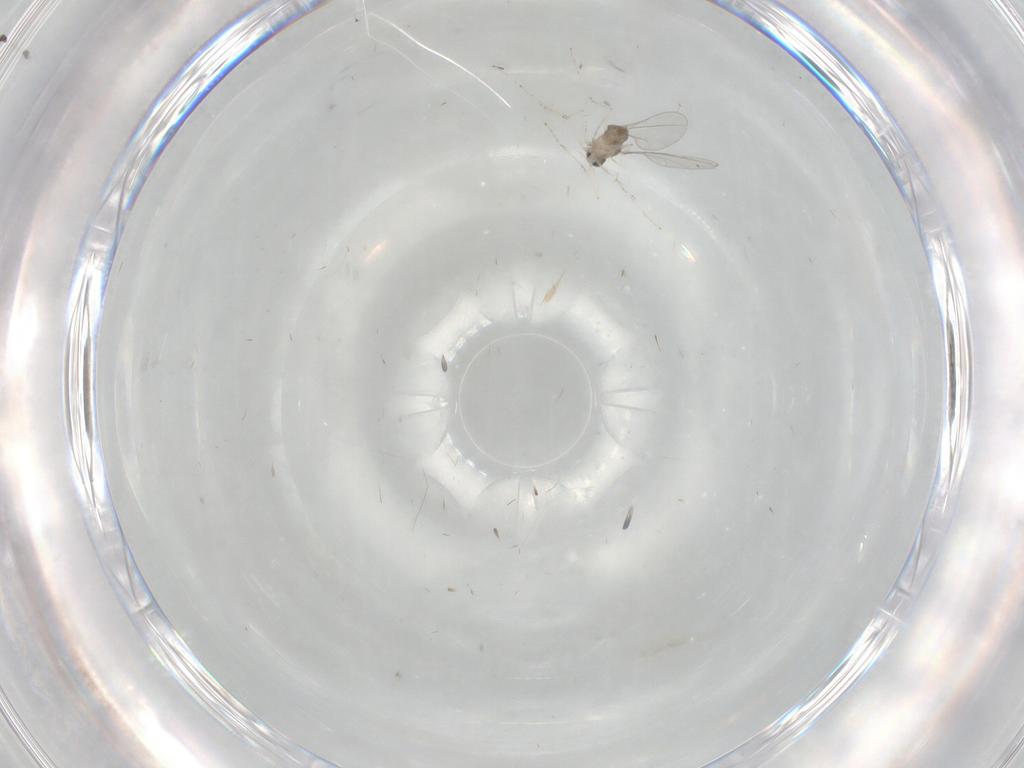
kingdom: Animalia
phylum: Arthropoda
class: Insecta
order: Diptera
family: Cecidomyiidae
